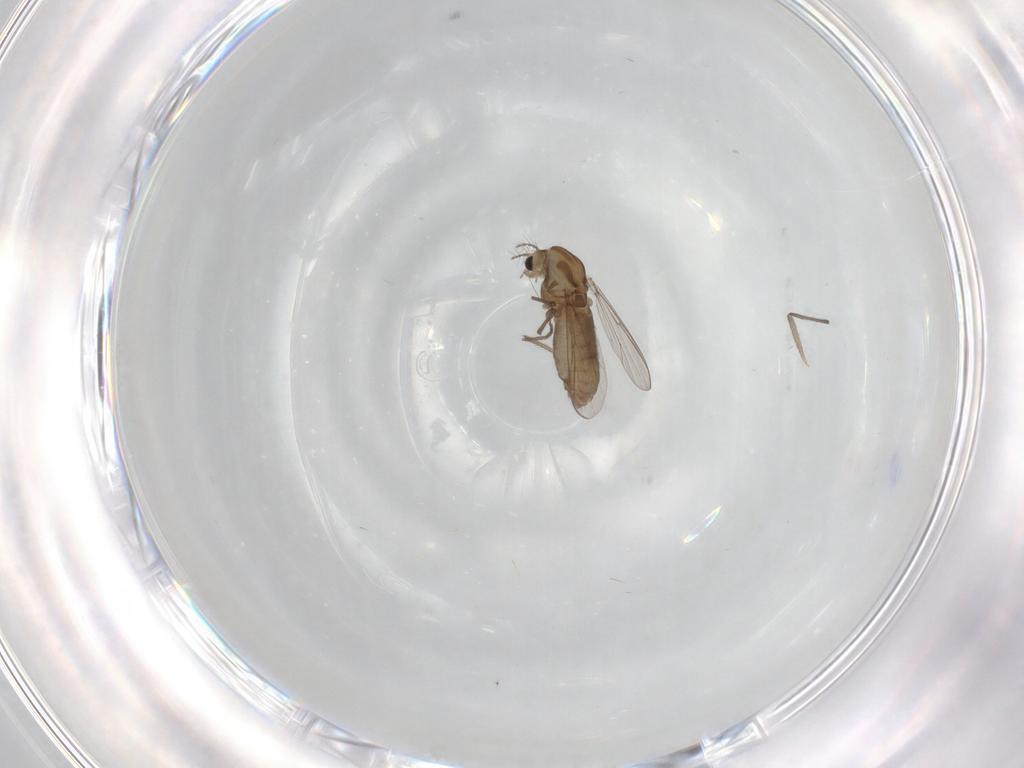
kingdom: Animalia
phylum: Arthropoda
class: Insecta
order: Diptera
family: Chironomidae
